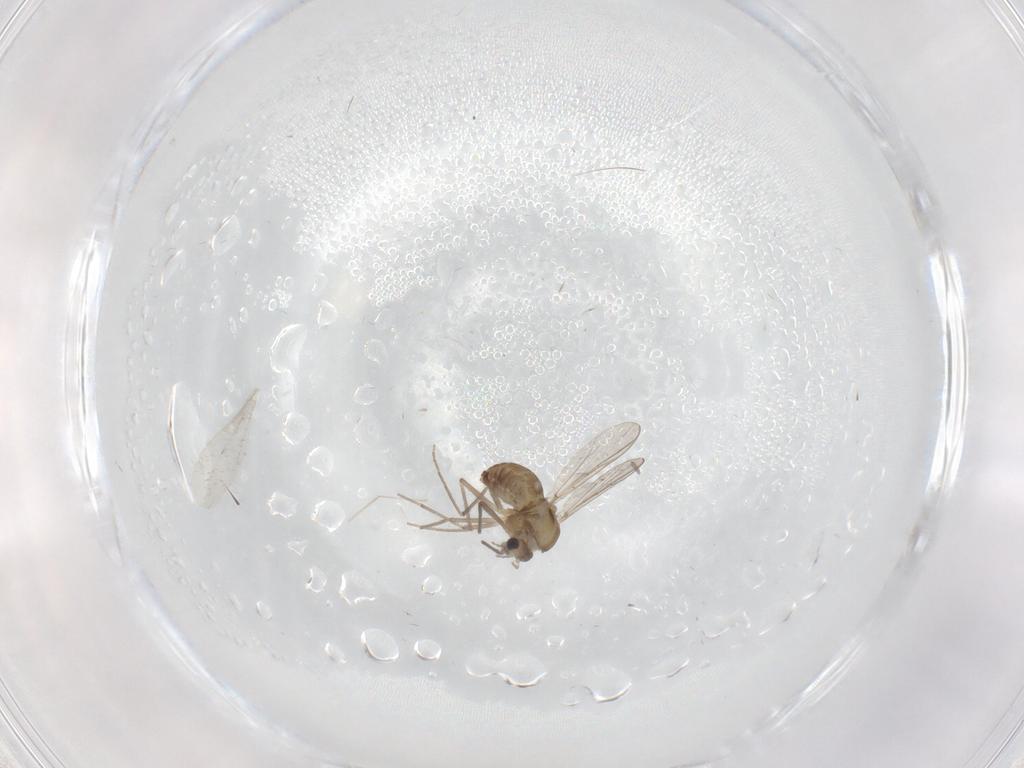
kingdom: Animalia
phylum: Arthropoda
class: Insecta
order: Diptera
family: Chironomidae
